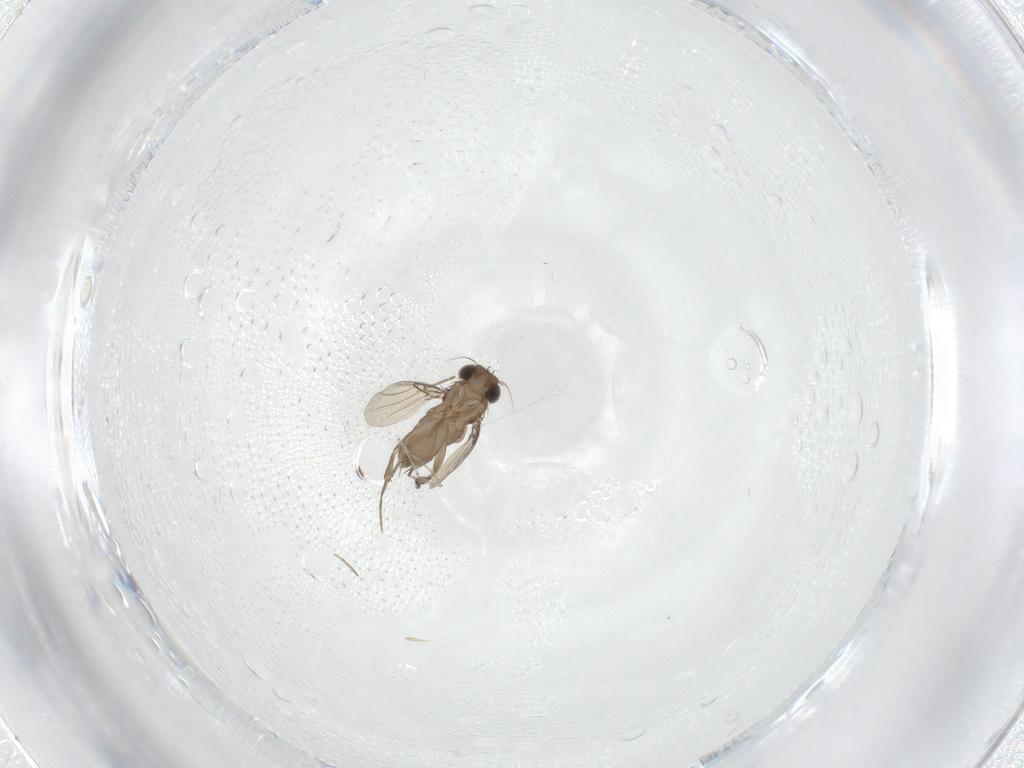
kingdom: Animalia
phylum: Arthropoda
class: Insecta
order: Diptera
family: Phoridae
